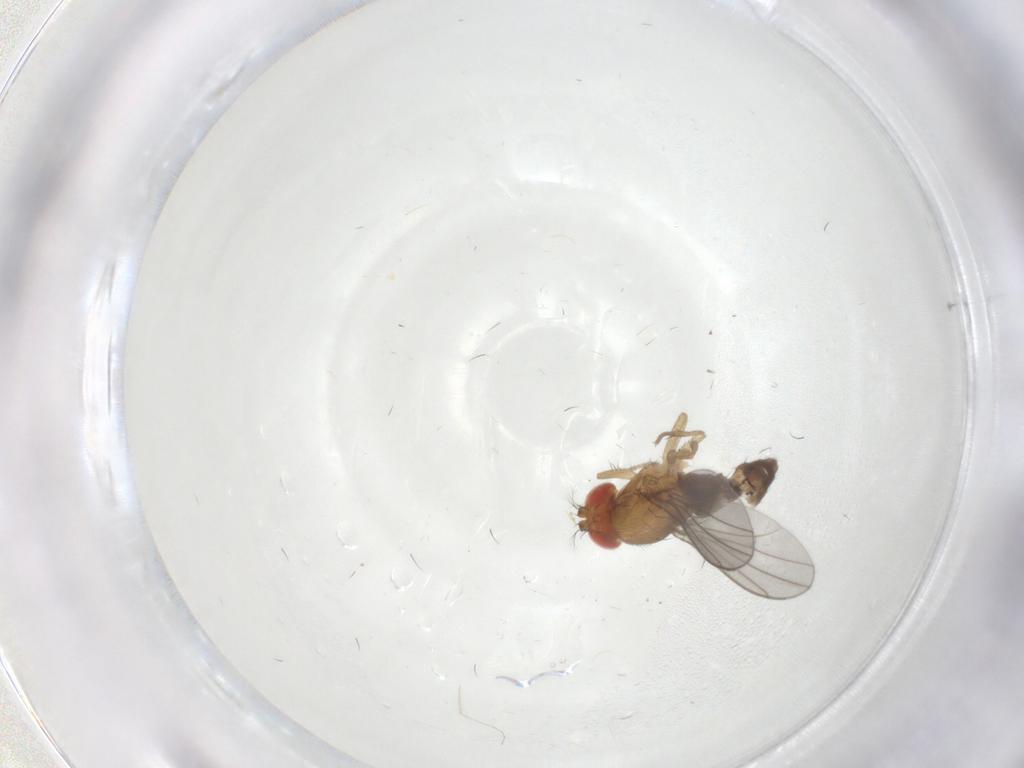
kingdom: Animalia
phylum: Arthropoda
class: Insecta
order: Diptera
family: Drosophilidae
